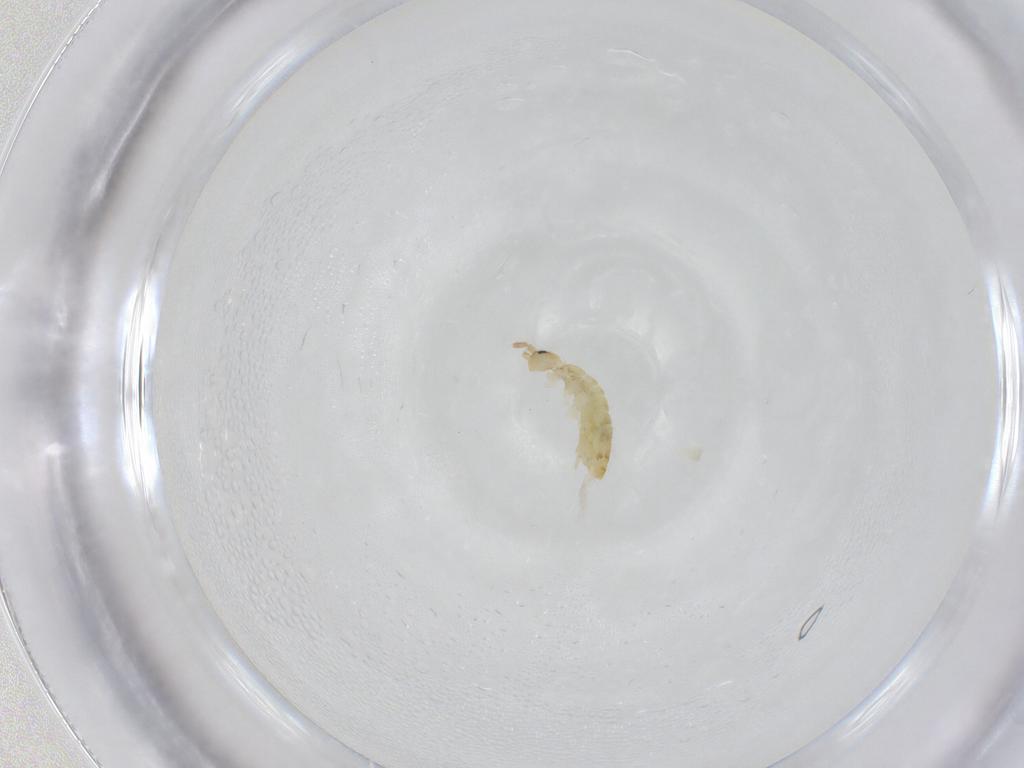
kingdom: Animalia
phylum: Arthropoda
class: Collembola
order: Entomobryomorpha
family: Entomobryidae
